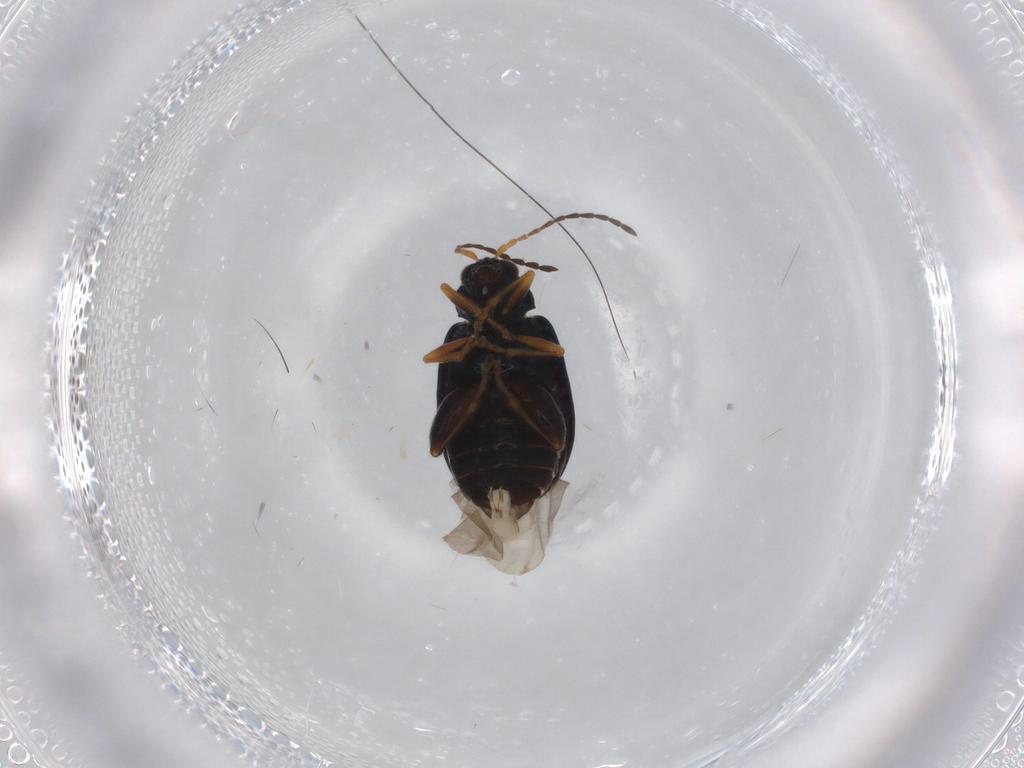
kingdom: Animalia
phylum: Arthropoda
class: Insecta
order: Coleoptera
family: Chrysomelidae
